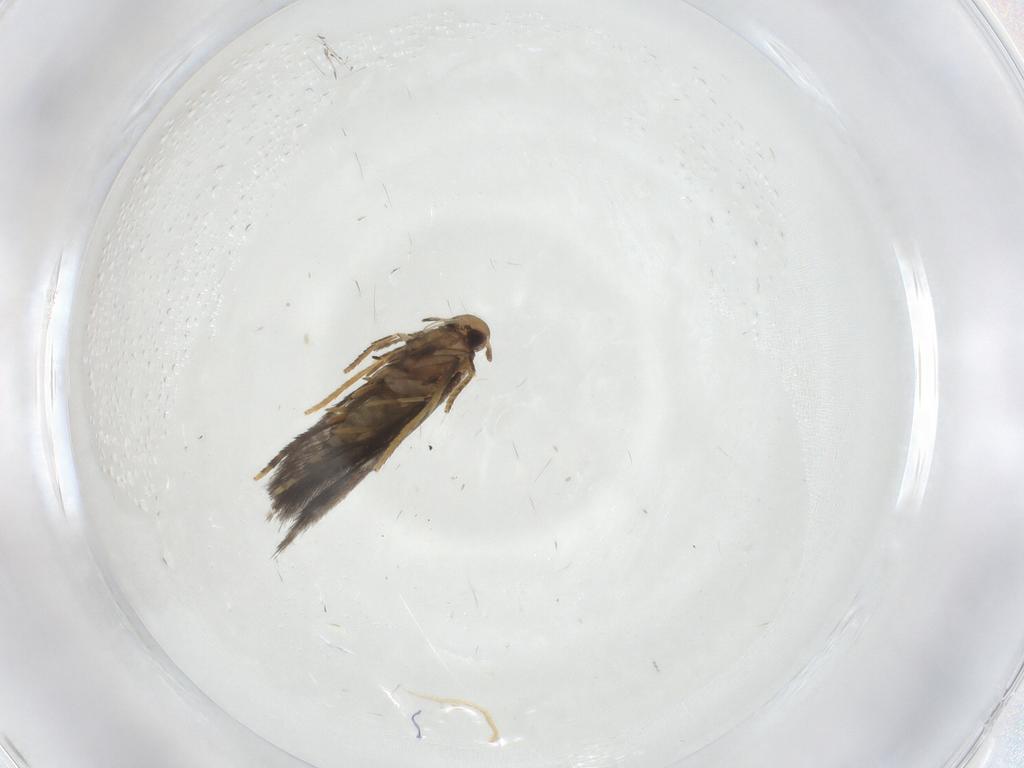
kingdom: Animalia
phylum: Arthropoda
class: Insecta
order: Lepidoptera
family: Heliozelidae
